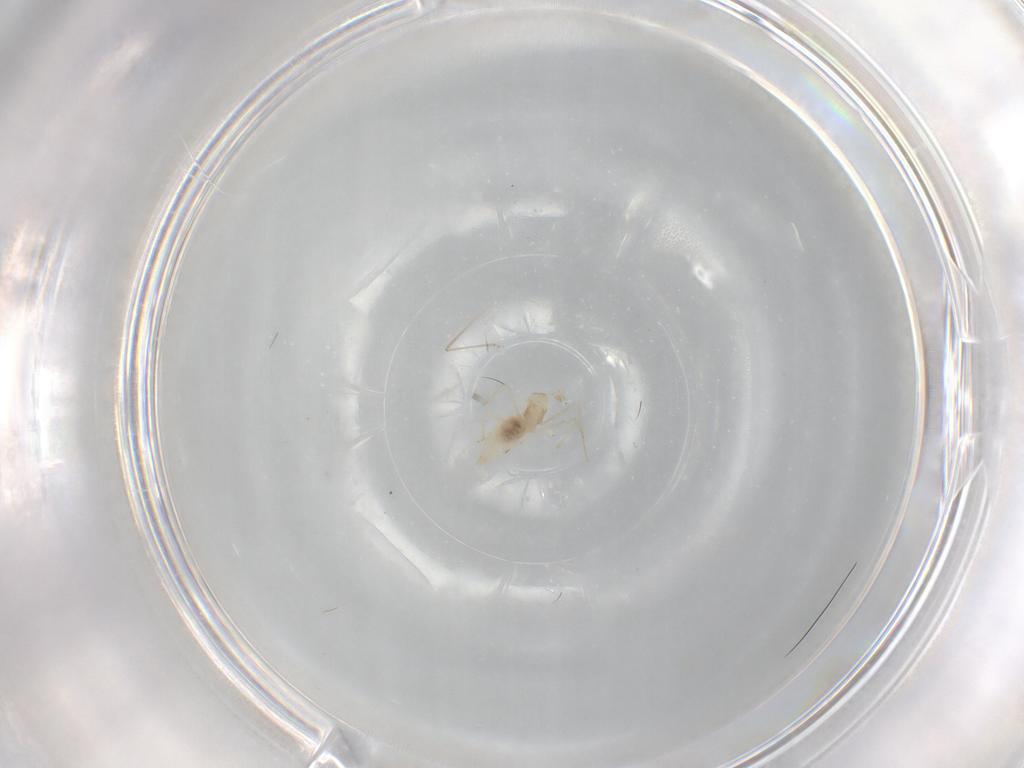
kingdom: Animalia
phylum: Arthropoda
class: Insecta
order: Diptera
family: Cecidomyiidae
